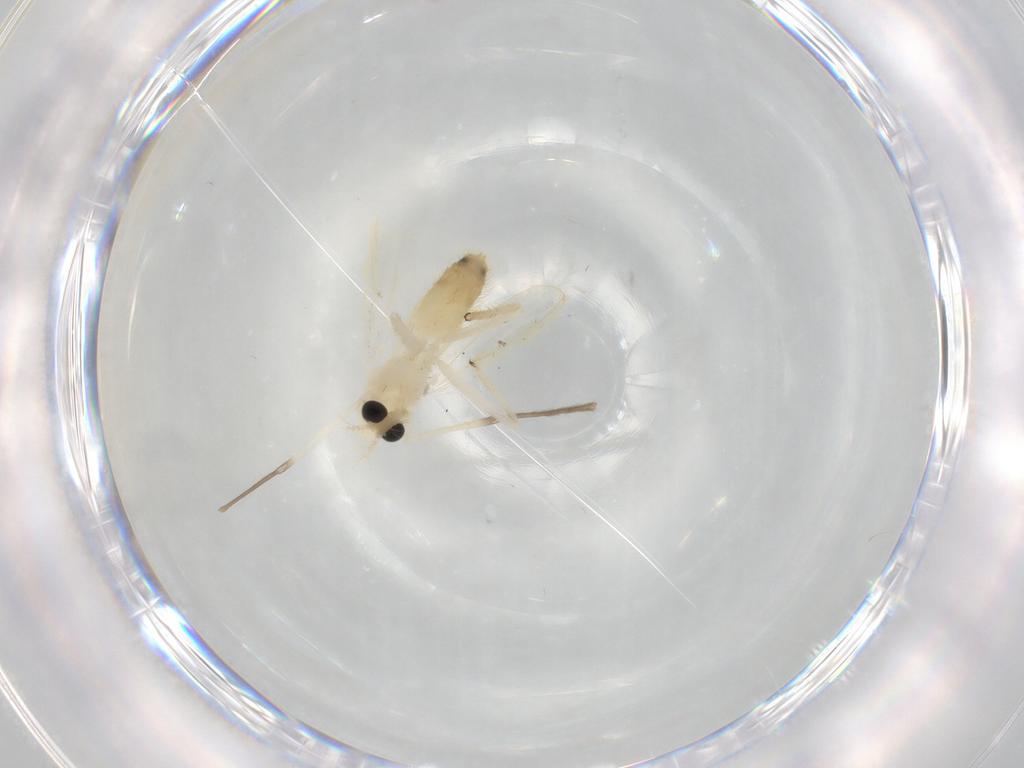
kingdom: Animalia
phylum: Arthropoda
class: Insecta
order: Diptera
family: Chironomidae
